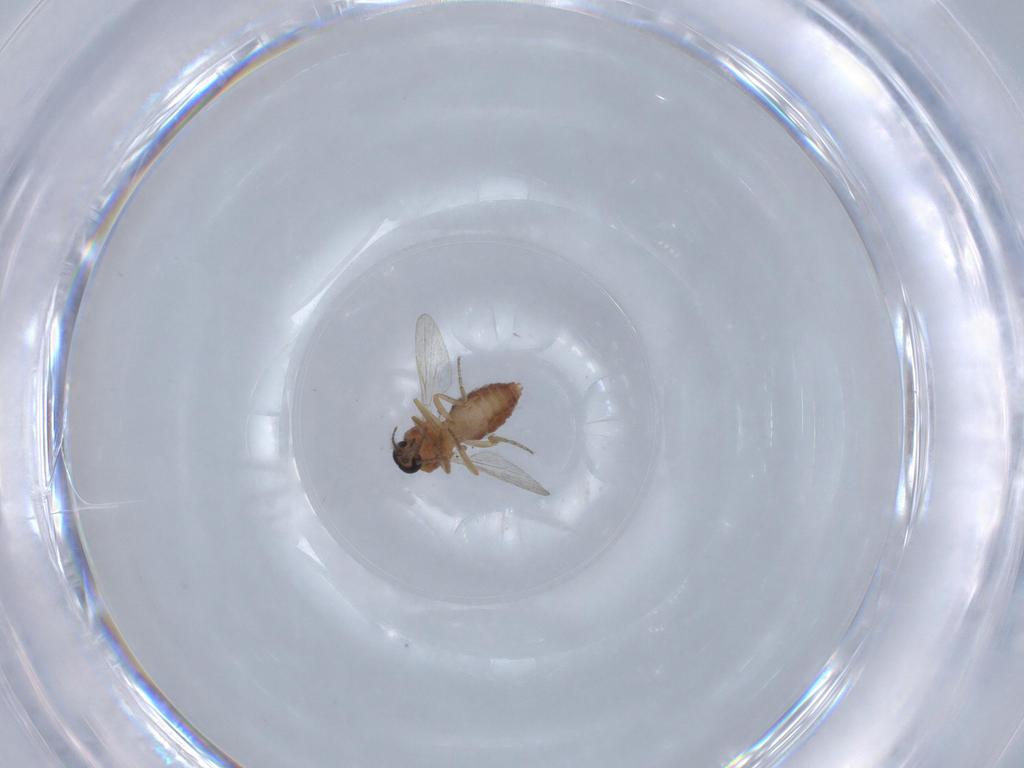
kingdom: Animalia
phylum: Arthropoda
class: Insecta
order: Diptera
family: Ceratopogonidae
